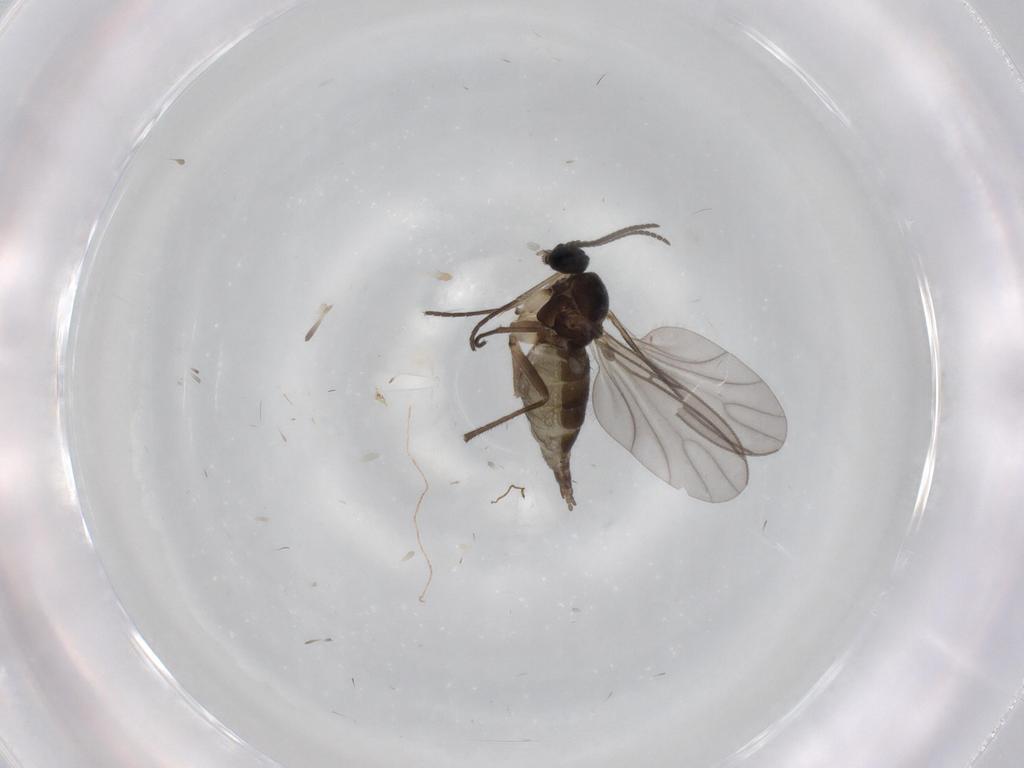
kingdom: Animalia
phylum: Arthropoda
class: Insecta
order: Diptera
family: Sciaridae
